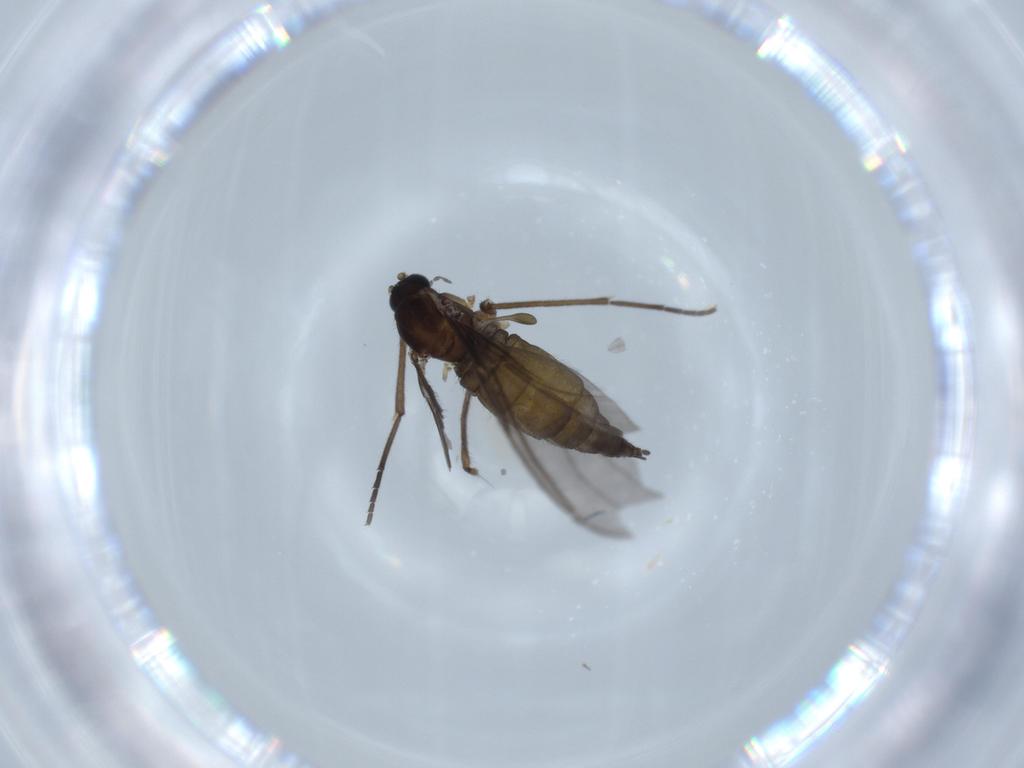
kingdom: Animalia
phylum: Arthropoda
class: Insecta
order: Diptera
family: Sciaridae
